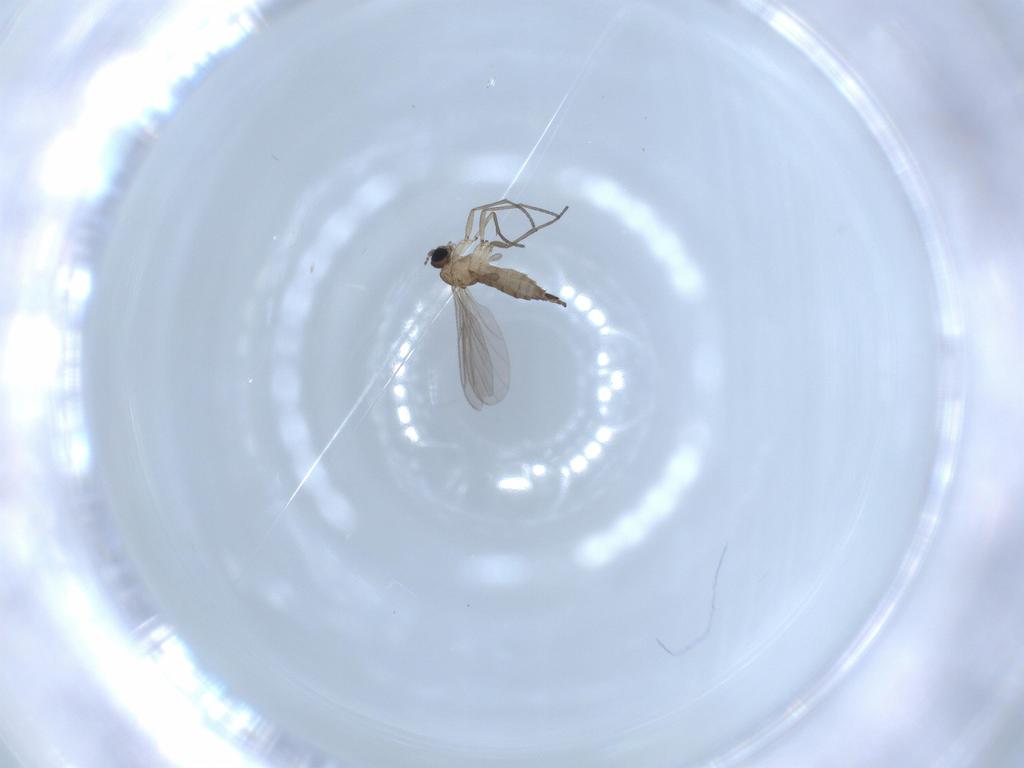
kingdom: Animalia
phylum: Arthropoda
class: Insecta
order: Diptera
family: Sciaridae
